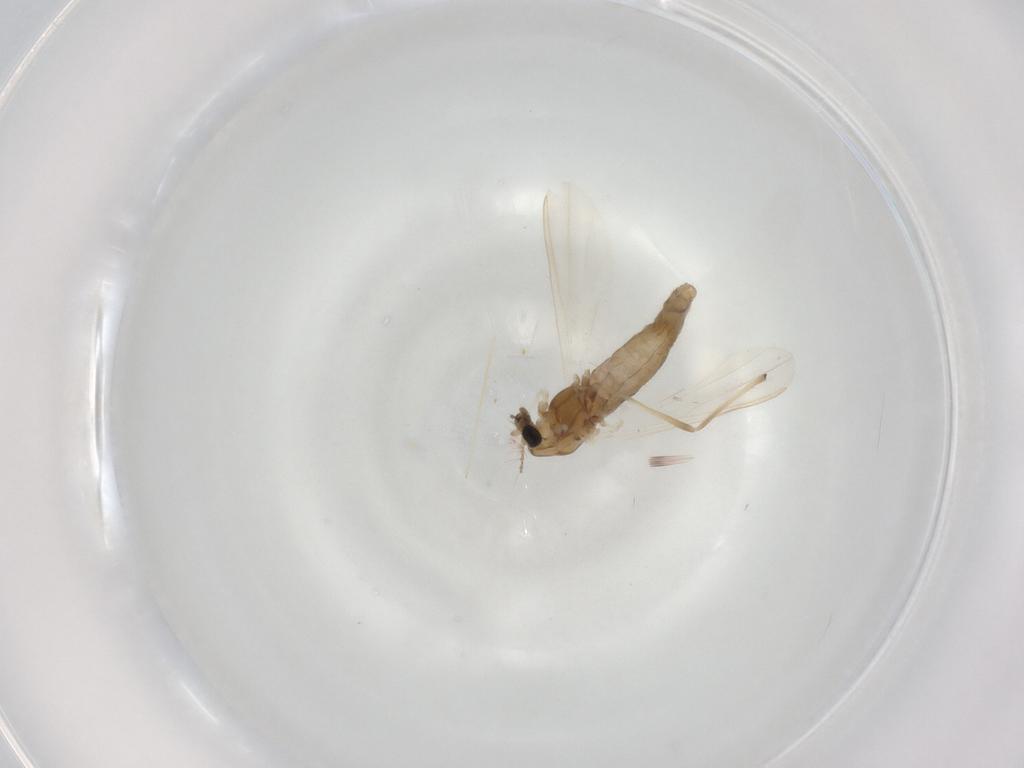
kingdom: Animalia
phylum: Arthropoda
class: Insecta
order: Diptera
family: Chironomidae
